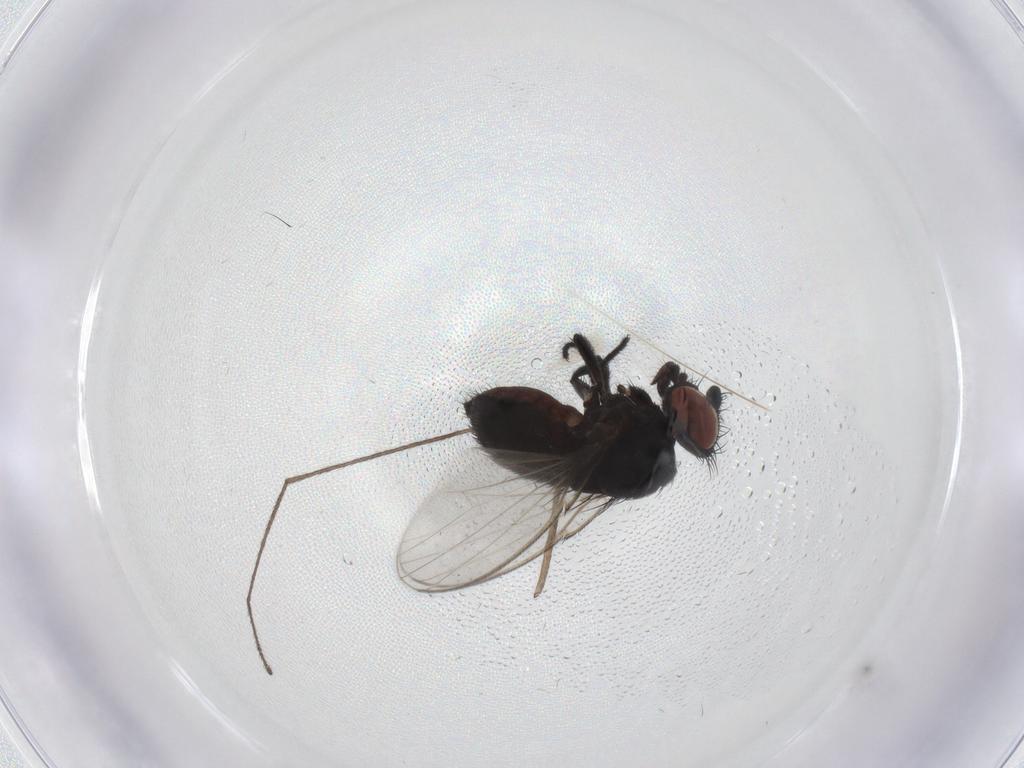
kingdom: Animalia
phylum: Arthropoda
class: Insecta
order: Diptera
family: Milichiidae
